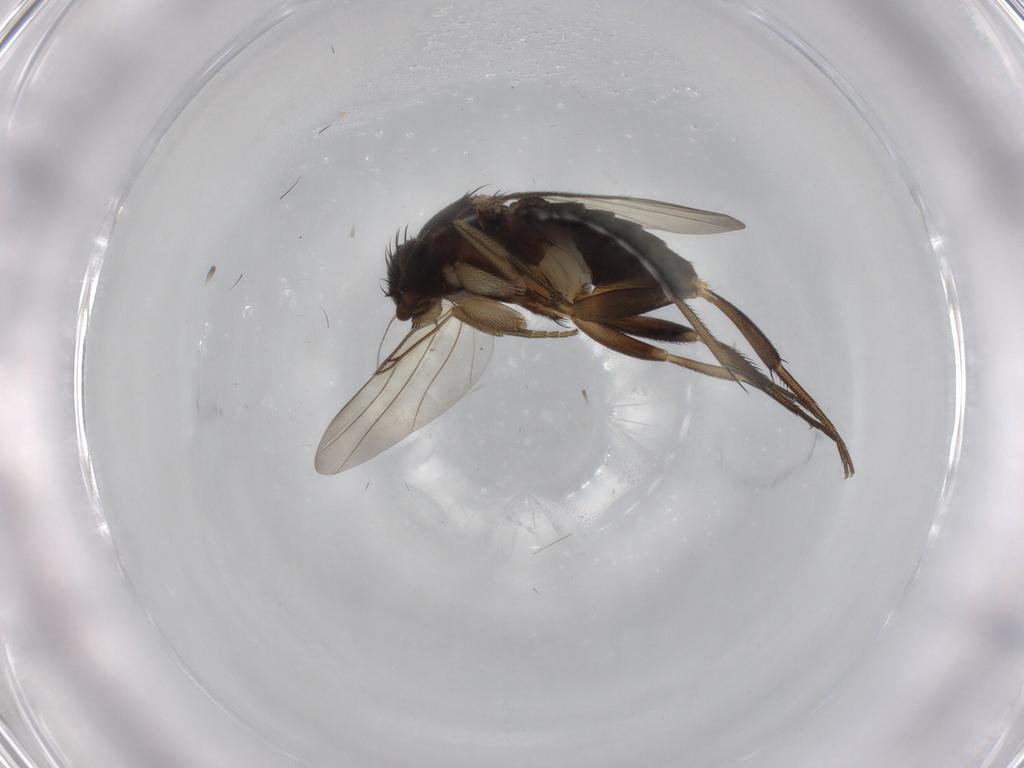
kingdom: Animalia
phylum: Arthropoda
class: Insecta
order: Diptera
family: Phoridae
